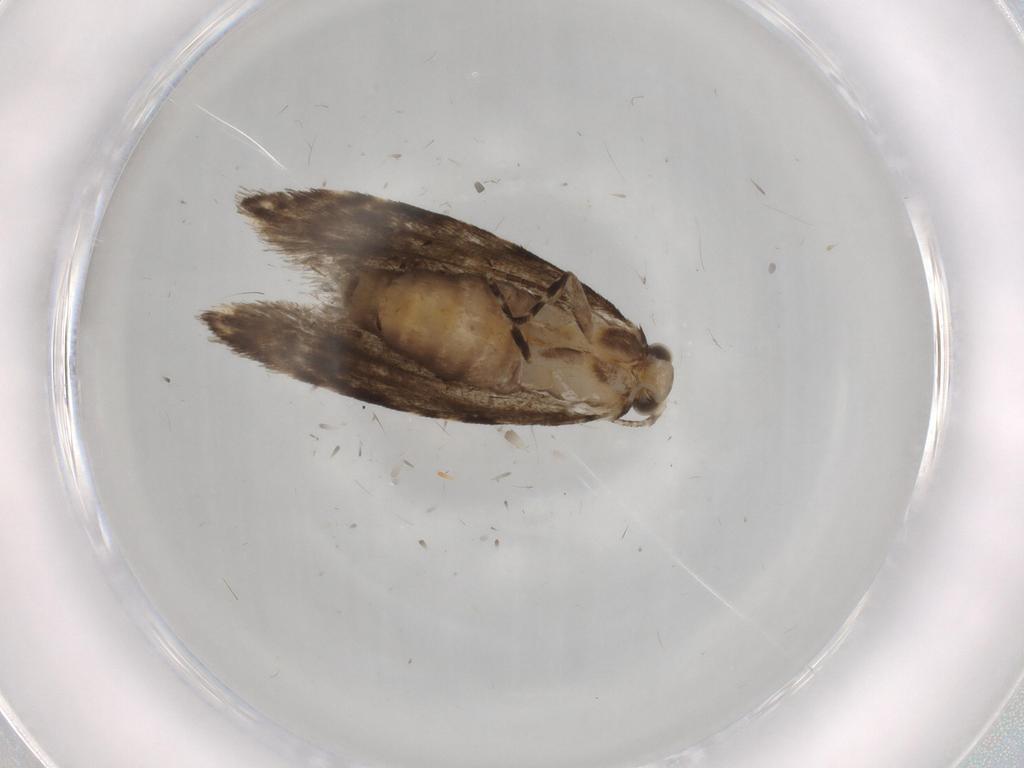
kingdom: Animalia
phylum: Arthropoda
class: Insecta
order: Lepidoptera
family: Tineidae
